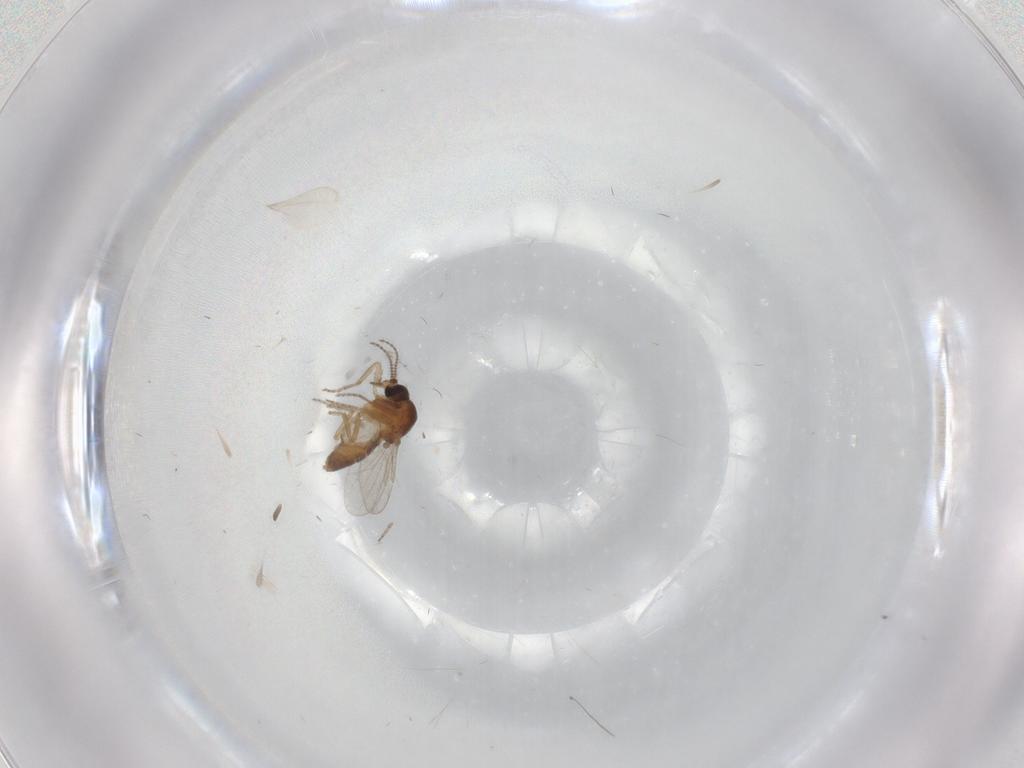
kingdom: Animalia
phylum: Arthropoda
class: Insecta
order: Diptera
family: Ceratopogonidae
